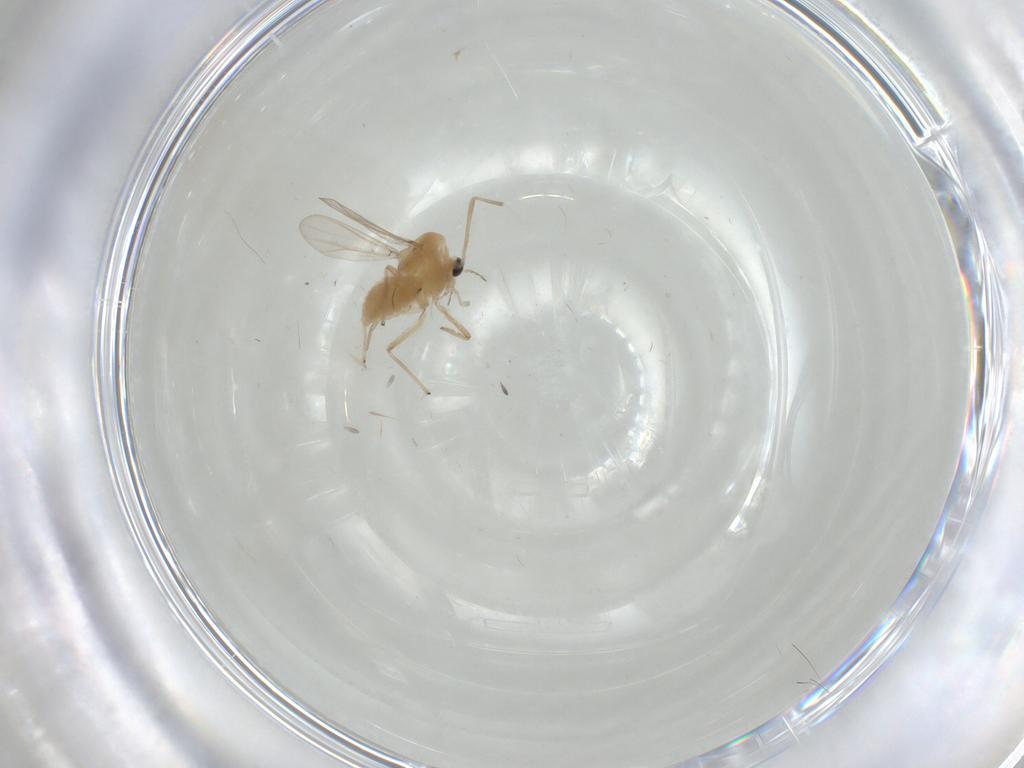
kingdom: Animalia
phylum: Arthropoda
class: Insecta
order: Diptera
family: Chironomidae
